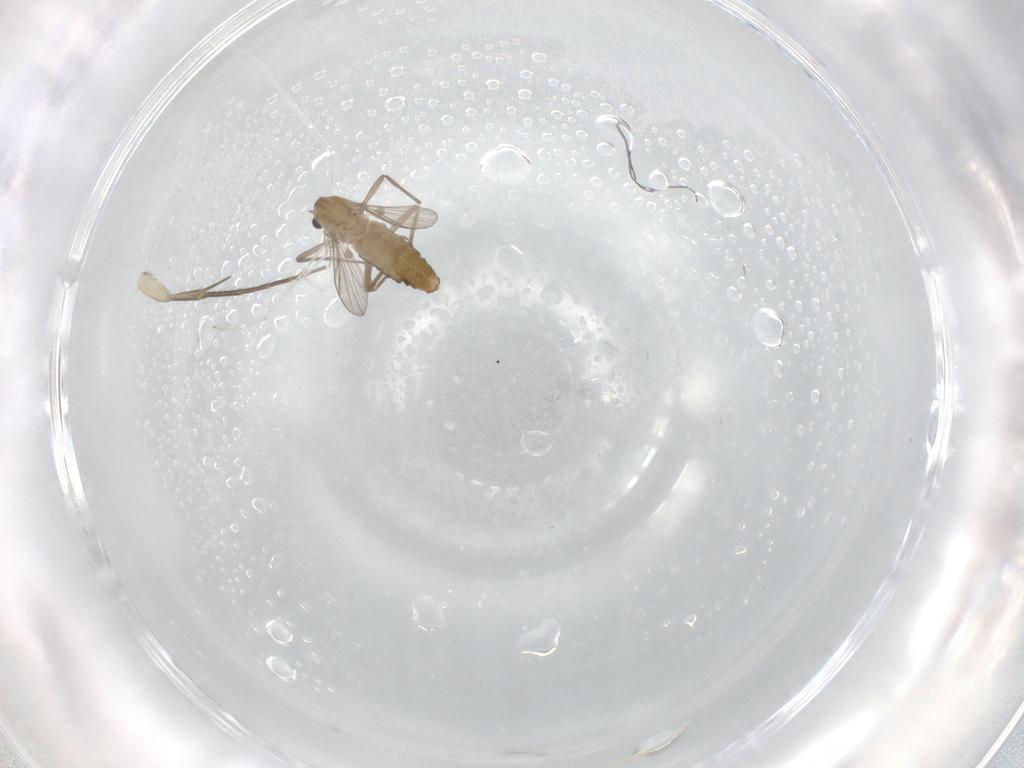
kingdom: Animalia
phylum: Arthropoda
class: Insecta
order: Diptera
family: Chironomidae
